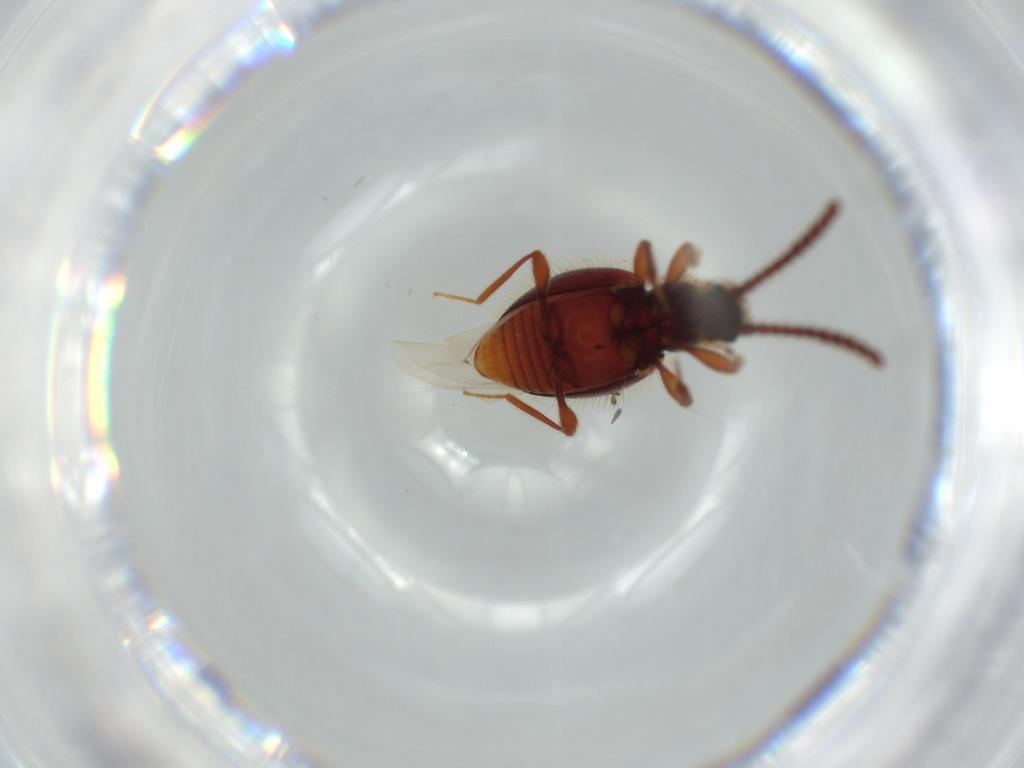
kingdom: Animalia
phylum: Arthropoda
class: Insecta
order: Coleoptera
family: Staphylinidae
